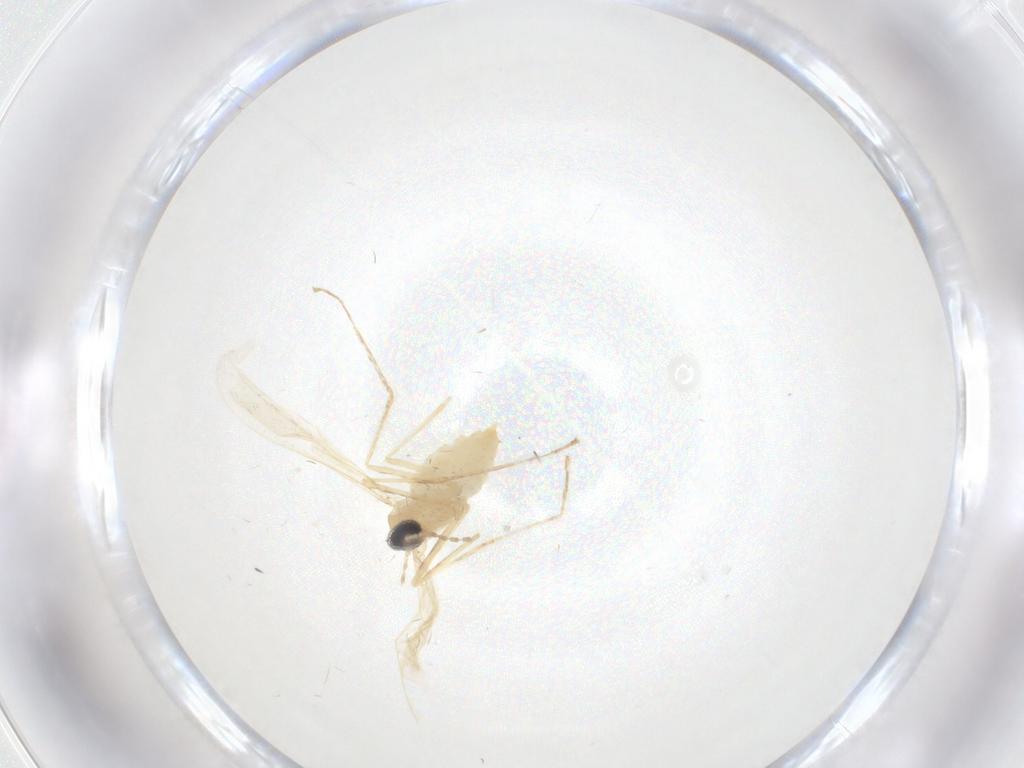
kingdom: Animalia
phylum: Arthropoda
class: Insecta
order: Diptera
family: Cecidomyiidae
